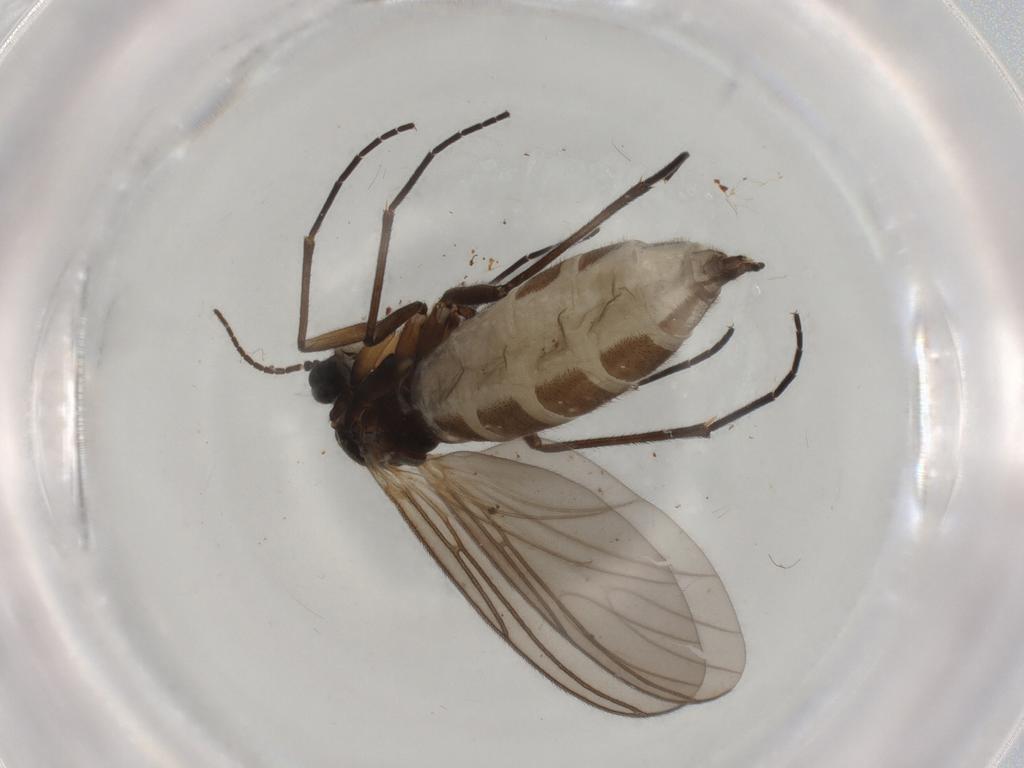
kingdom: Animalia
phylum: Arthropoda
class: Insecta
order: Diptera
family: Sciaridae
